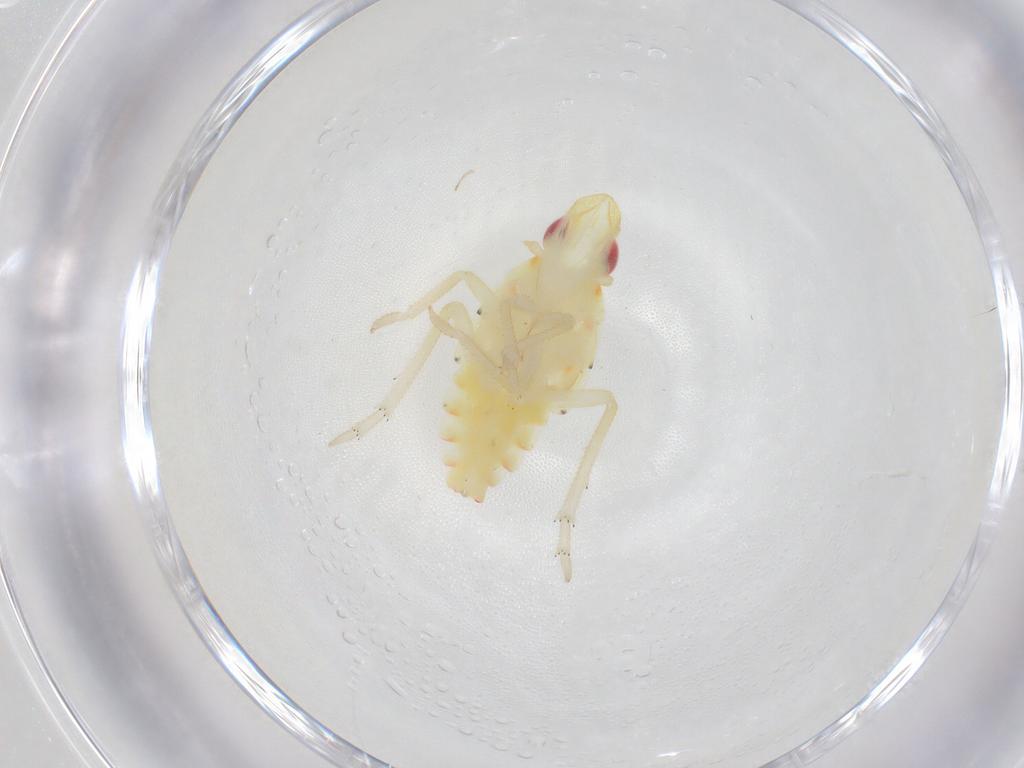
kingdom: Animalia
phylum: Arthropoda
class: Insecta
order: Hemiptera
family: Tropiduchidae
